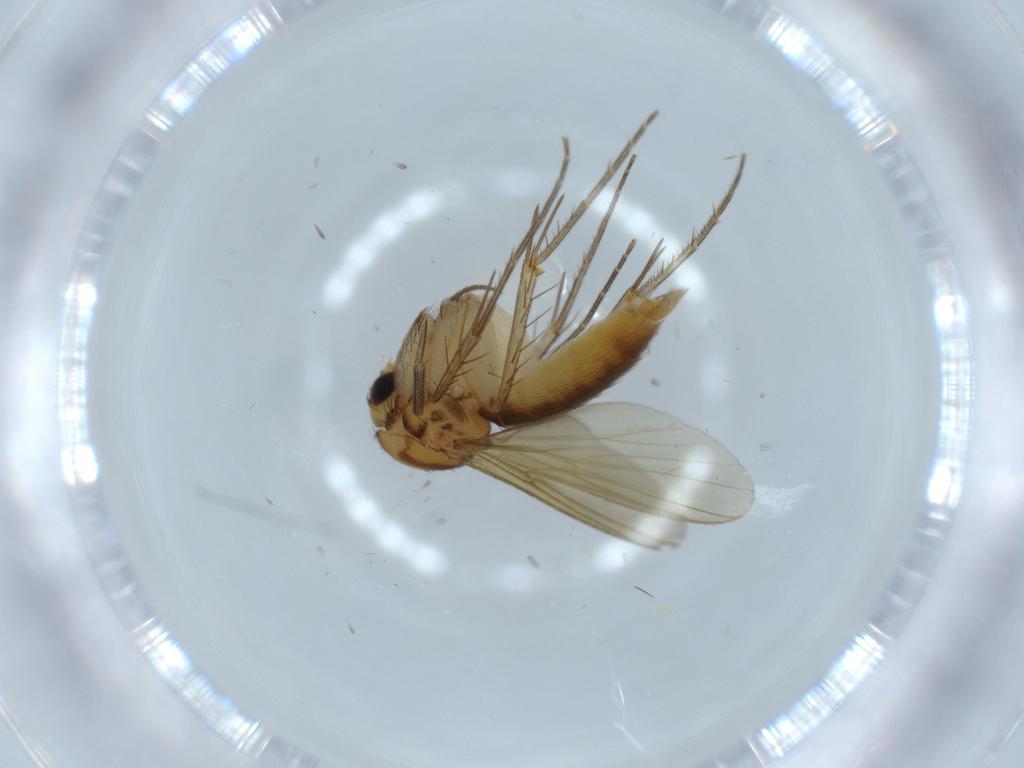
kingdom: Animalia
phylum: Arthropoda
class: Insecta
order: Diptera
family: Mycetophilidae
